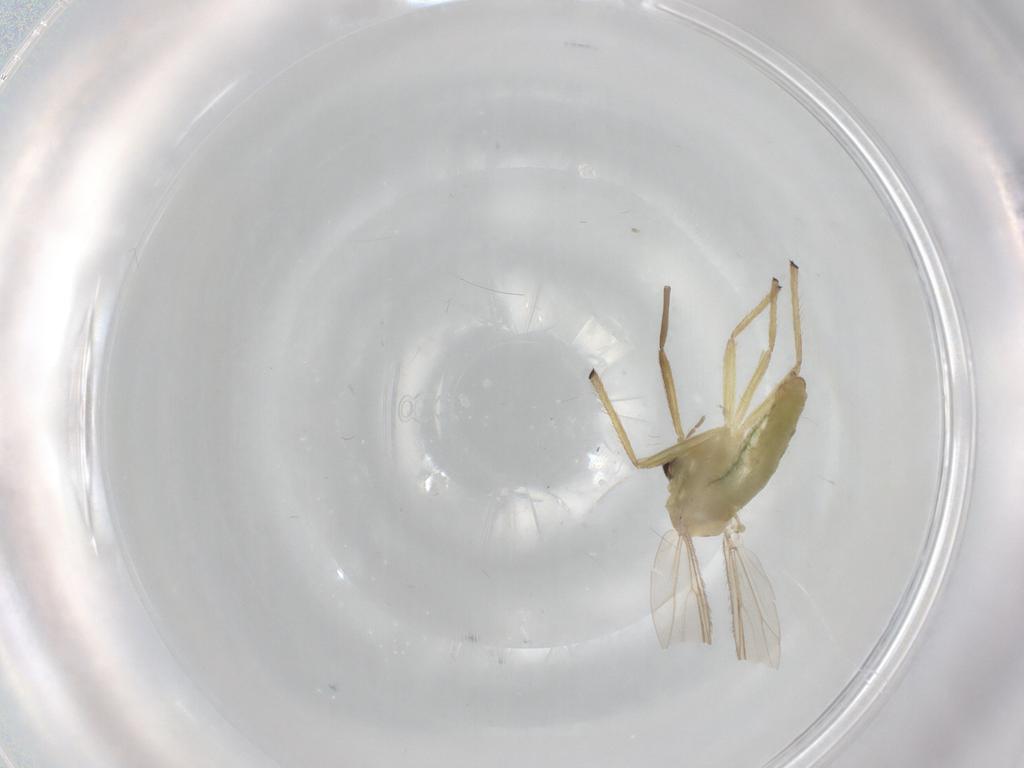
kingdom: Animalia
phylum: Arthropoda
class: Insecta
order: Diptera
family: Chironomidae
